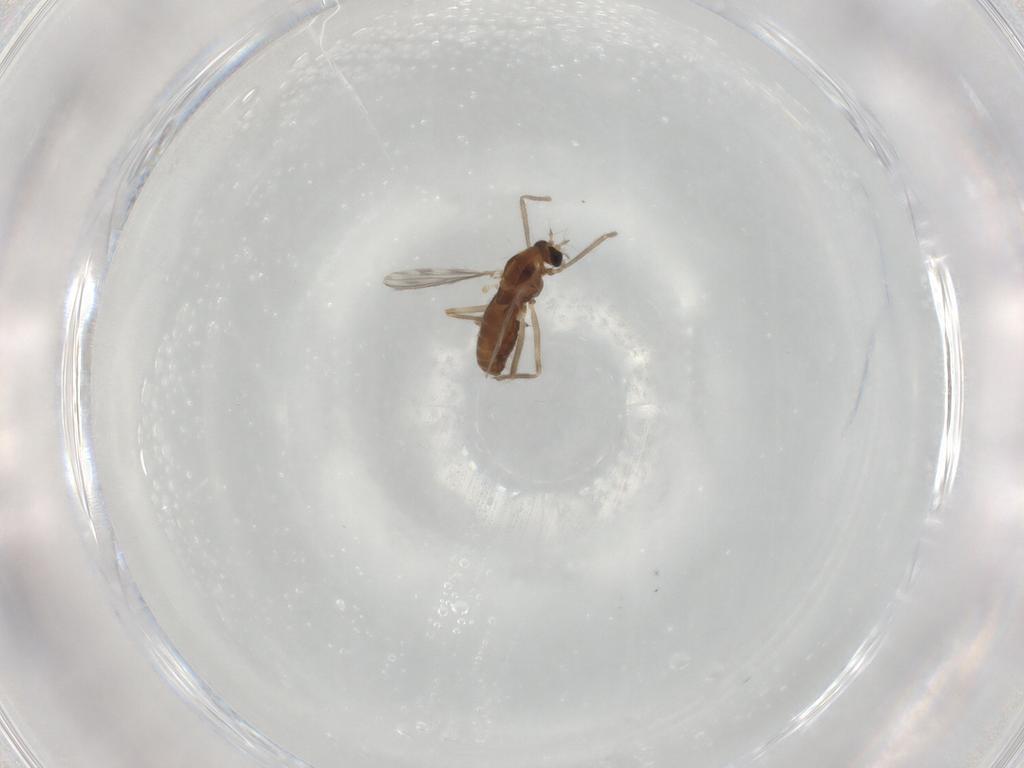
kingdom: Animalia
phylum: Arthropoda
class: Insecta
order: Diptera
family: Chironomidae
